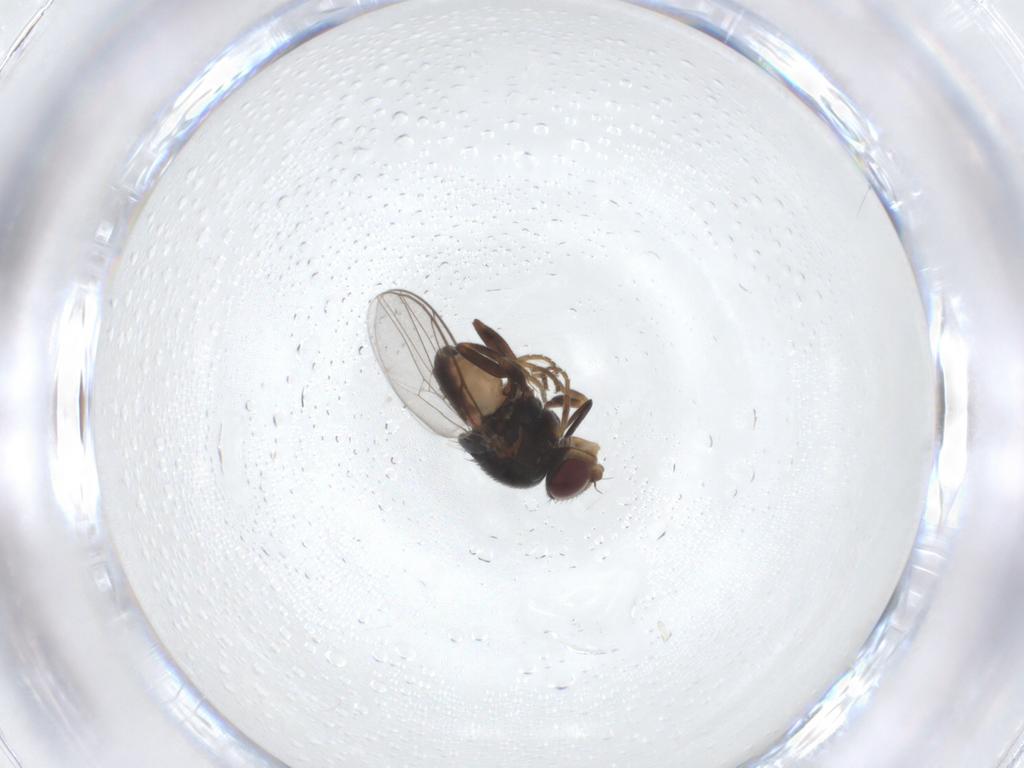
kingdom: Animalia
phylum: Arthropoda
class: Insecta
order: Diptera
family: Chloropidae
